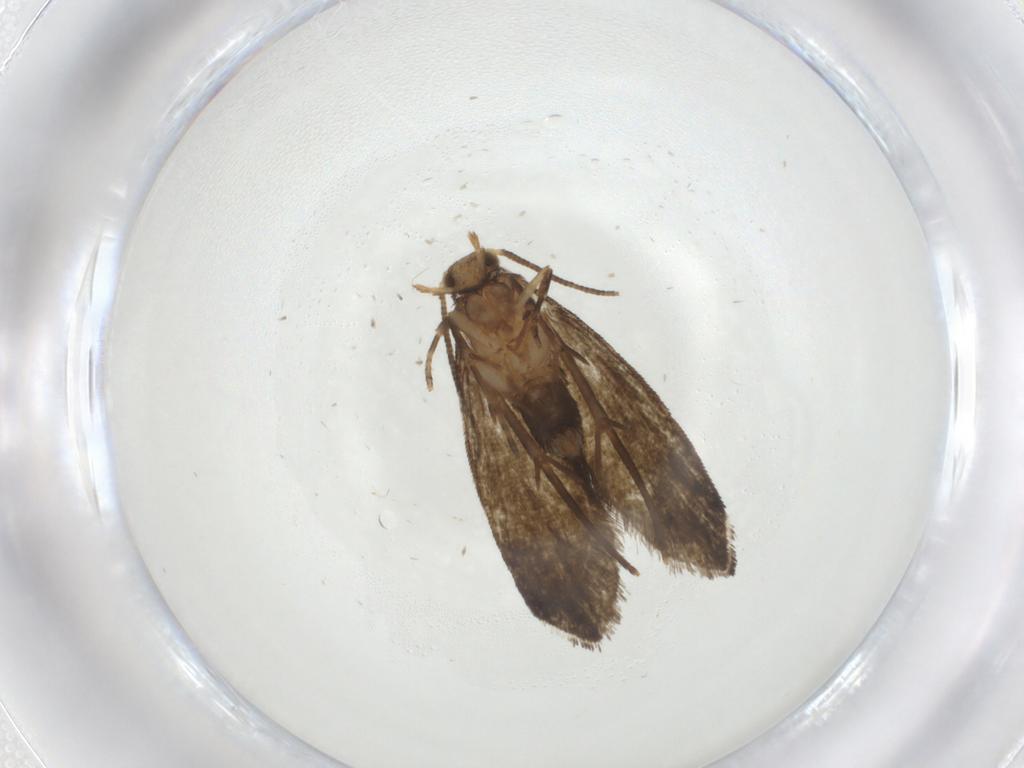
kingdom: Animalia
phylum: Arthropoda
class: Insecta
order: Lepidoptera
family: Tineidae
